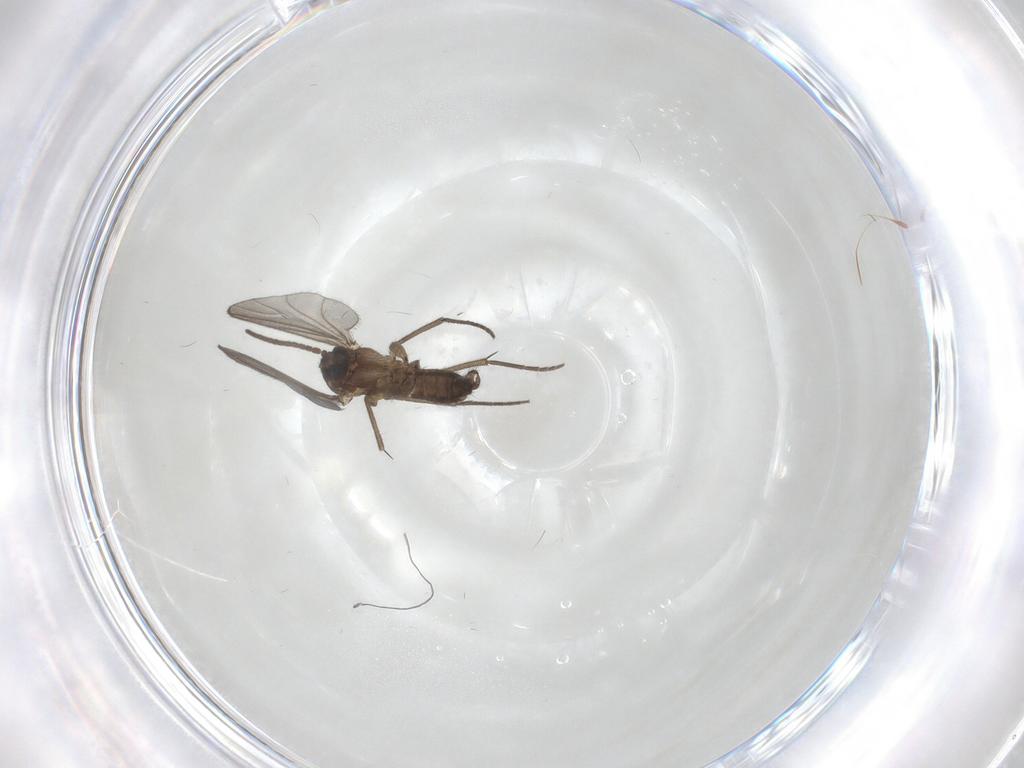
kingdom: Animalia
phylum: Arthropoda
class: Insecta
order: Diptera
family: Sciaridae
